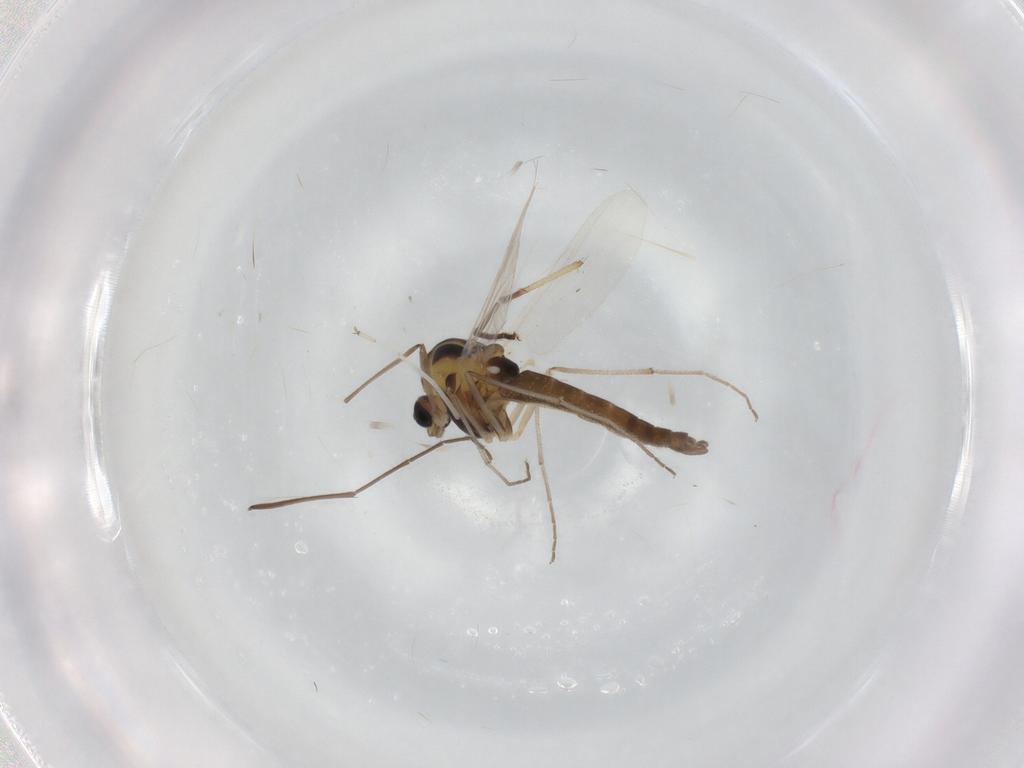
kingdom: Animalia
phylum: Arthropoda
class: Insecta
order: Diptera
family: Chironomidae
